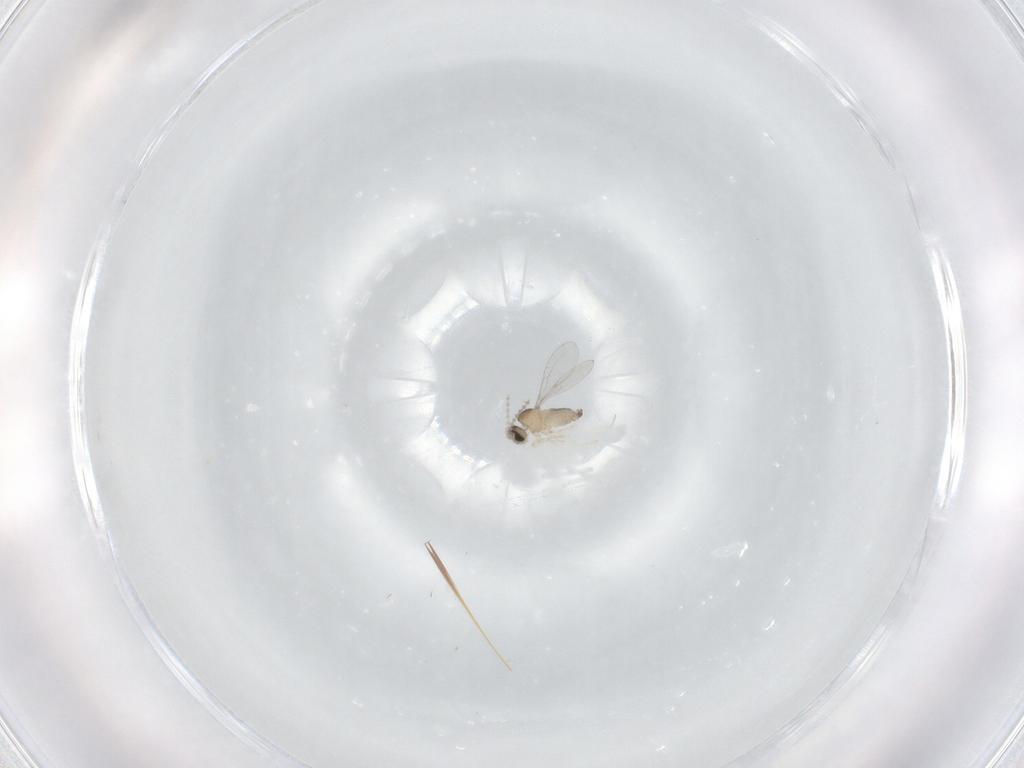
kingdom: Animalia
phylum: Arthropoda
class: Insecta
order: Diptera
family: Cecidomyiidae
